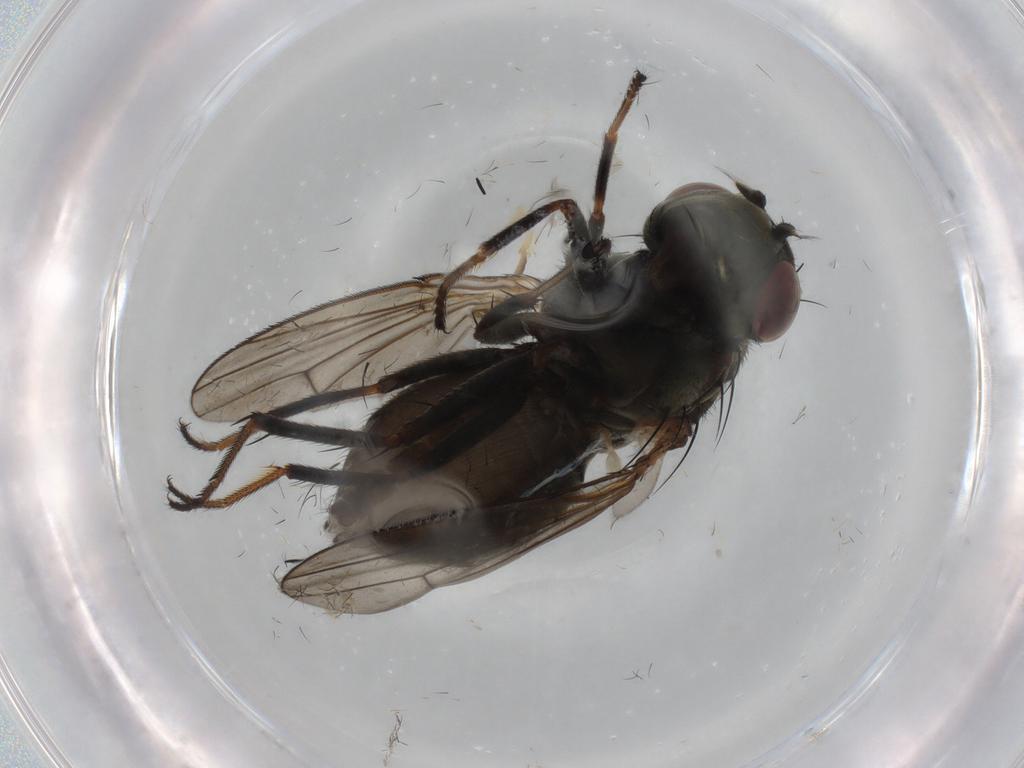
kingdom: Animalia
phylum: Arthropoda
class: Insecta
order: Diptera
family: Ephydridae
